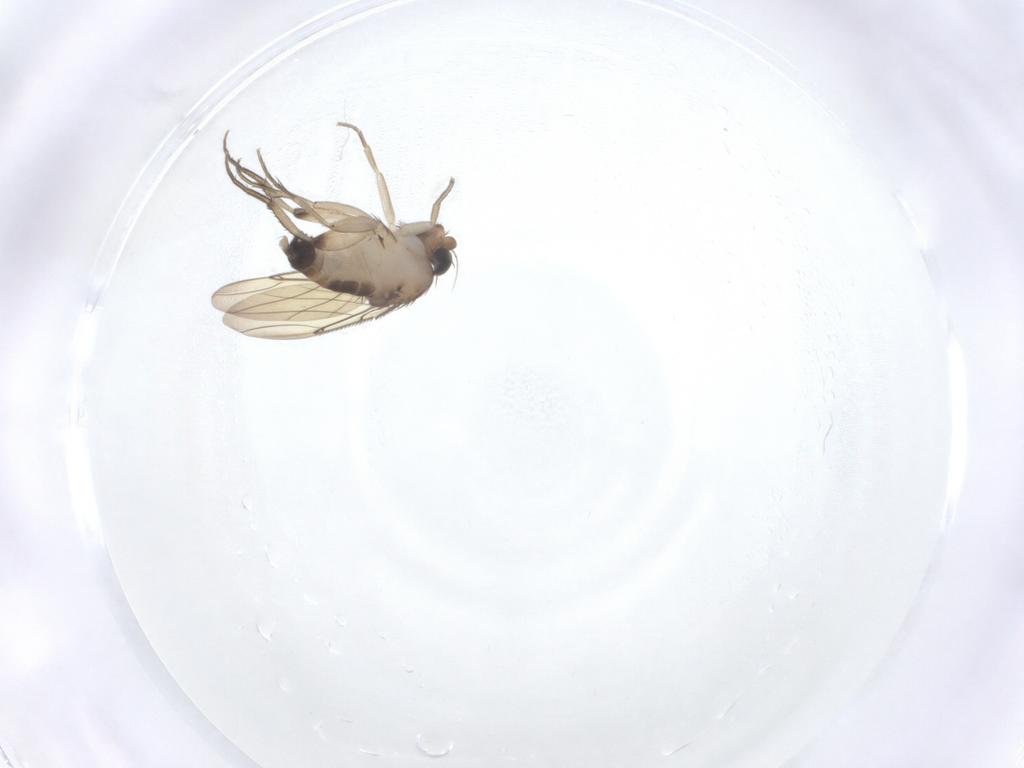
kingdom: Animalia
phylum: Arthropoda
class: Insecta
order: Diptera
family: Phoridae
